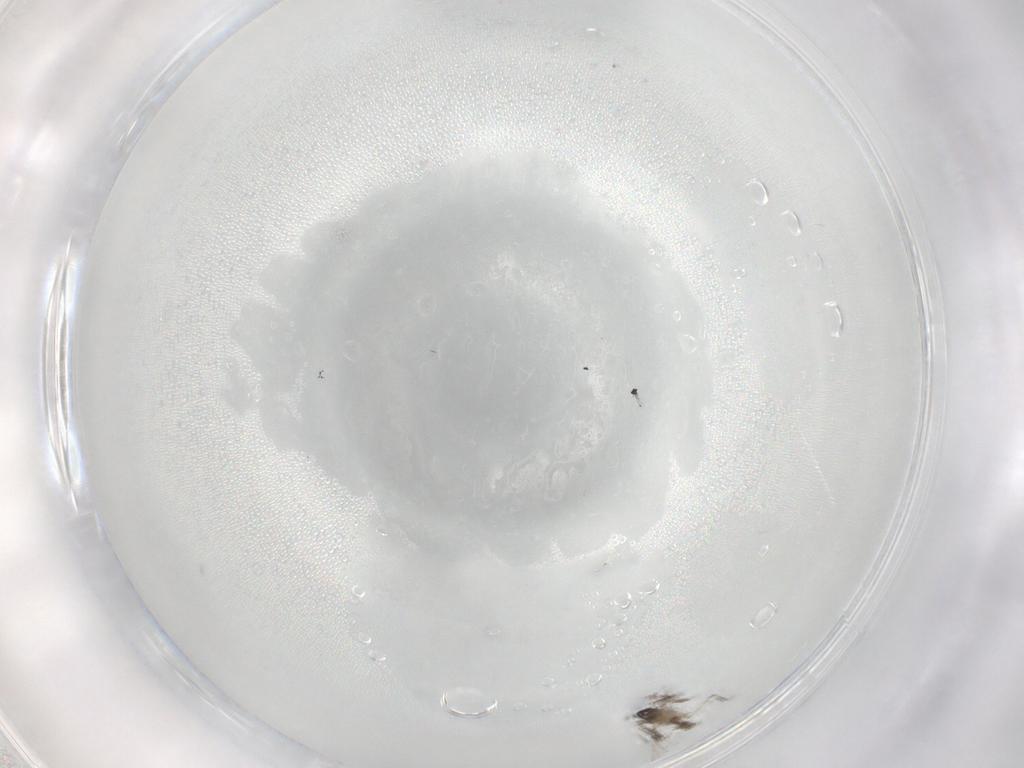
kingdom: Animalia
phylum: Arthropoda
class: Insecta
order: Diptera
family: Cecidomyiidae
